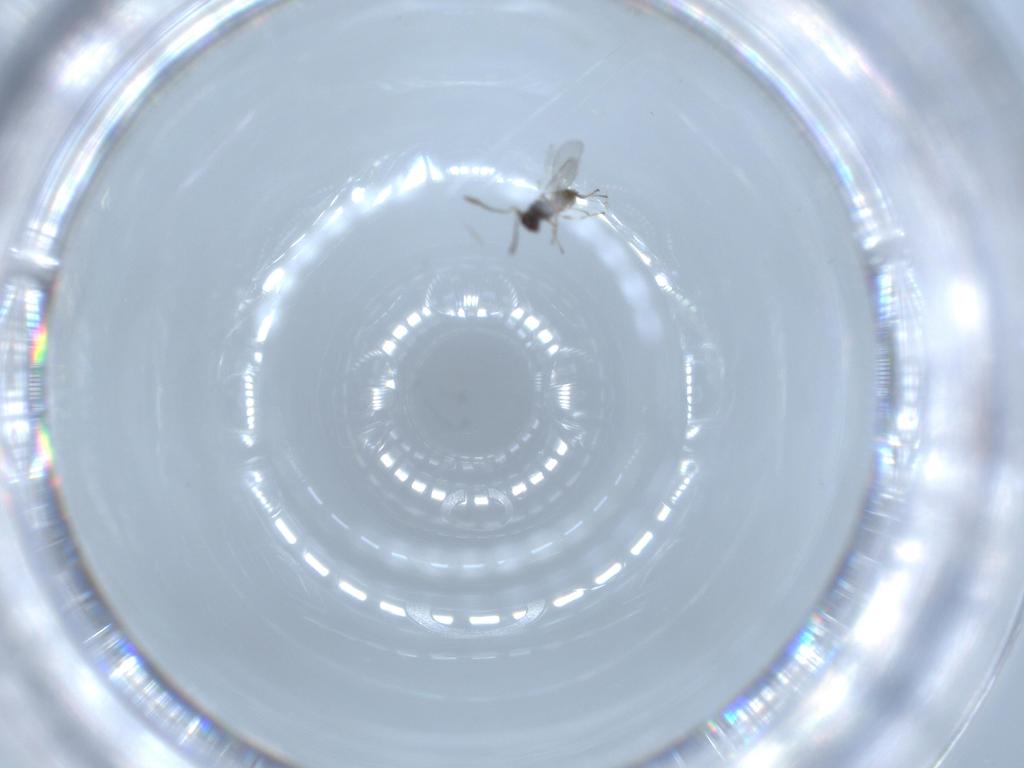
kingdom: Animalia
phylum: Arthropoda
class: Insecta
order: Hymenoptera
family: Mymaridae
